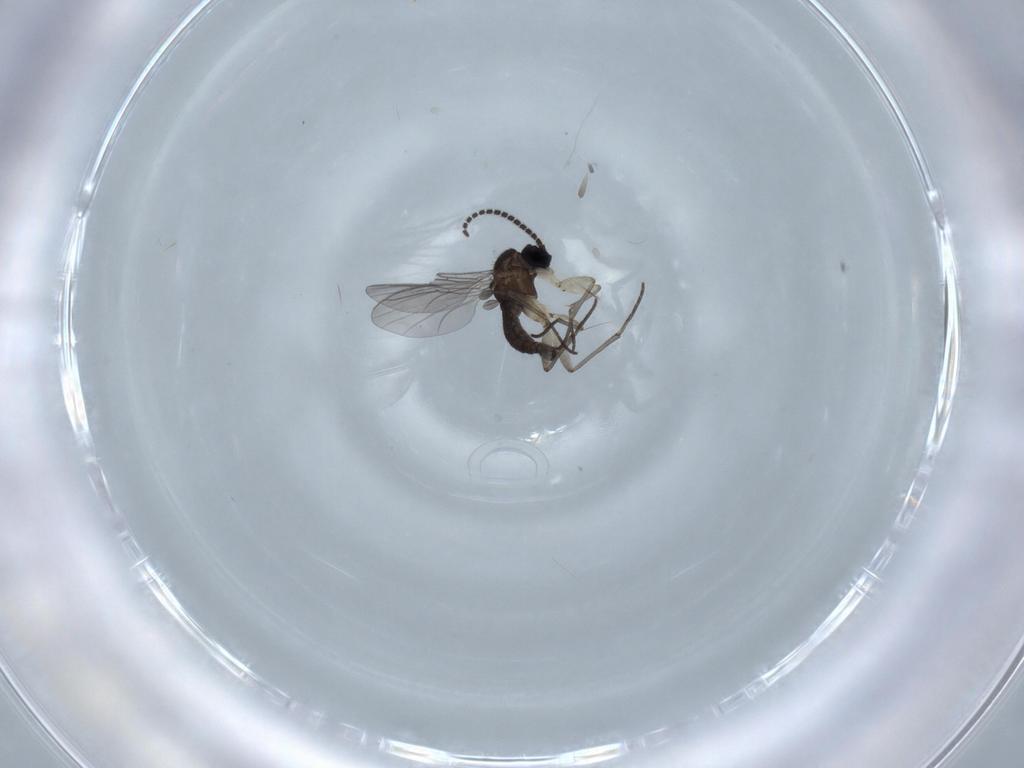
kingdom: Animalia
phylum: Arthropoda
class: Insecta
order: Diptera
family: Sciaridae
